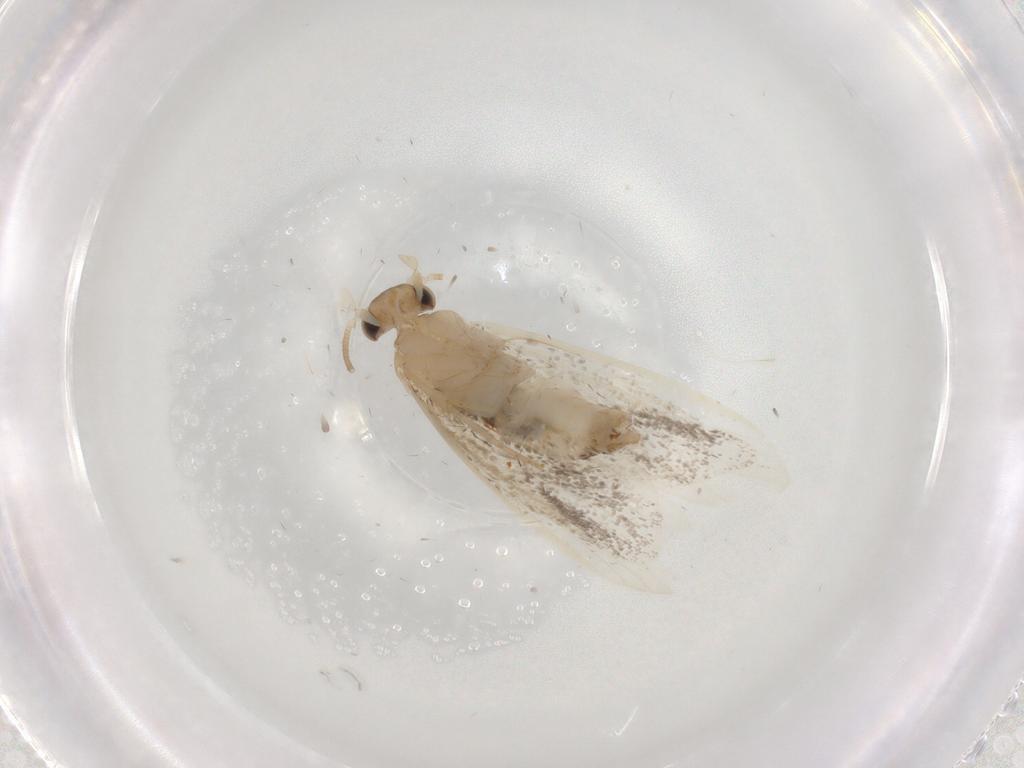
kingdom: Animalia
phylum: Arthropoda
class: Insecta
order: Lepidoptera
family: Dryadaulidae
